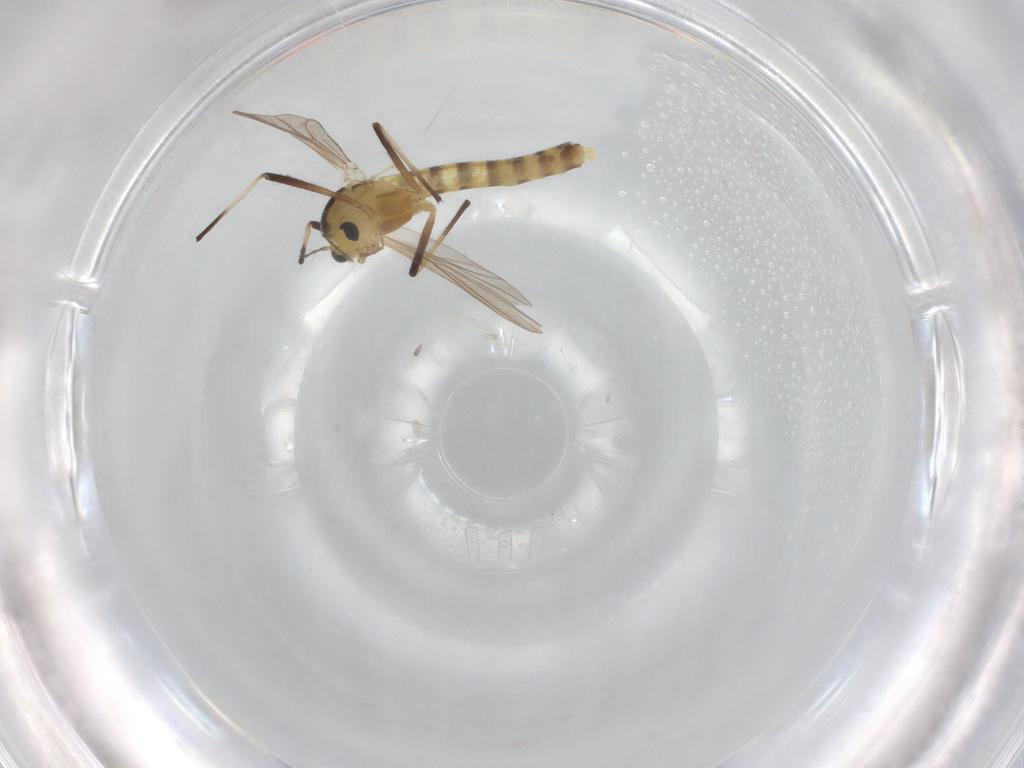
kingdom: Animalia
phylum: Arthropoda
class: Insecta
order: Diptera
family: Chironomidae
